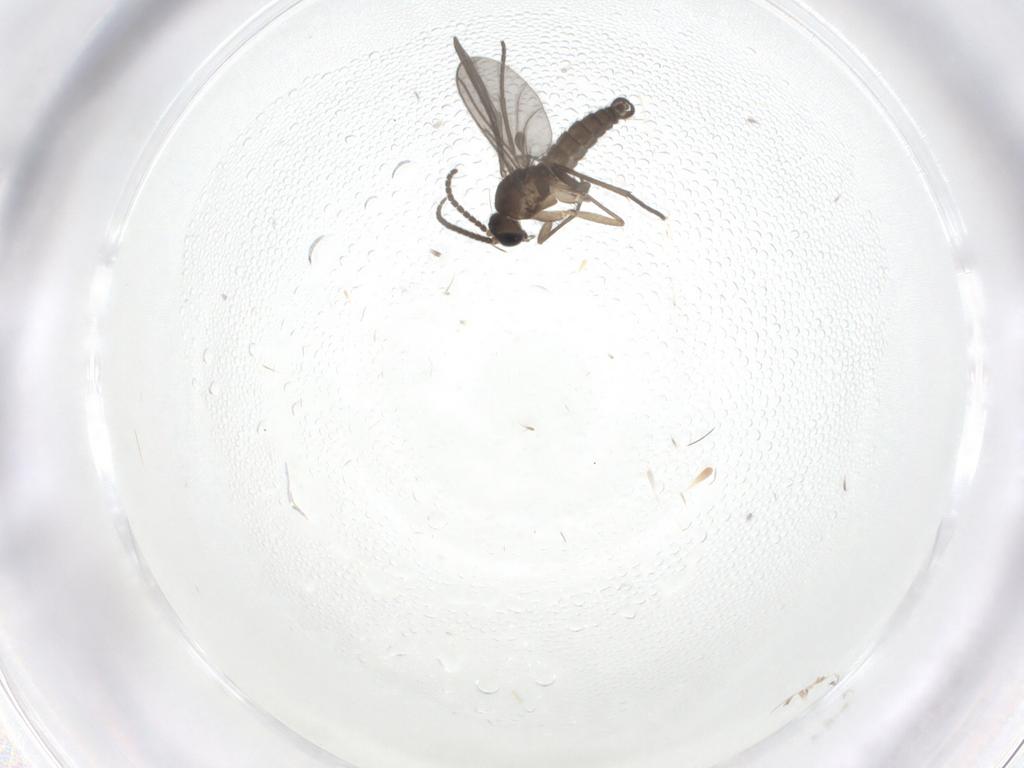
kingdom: Animalia
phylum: Arthropoda
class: Insecta
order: Diptera
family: Sciaridae
